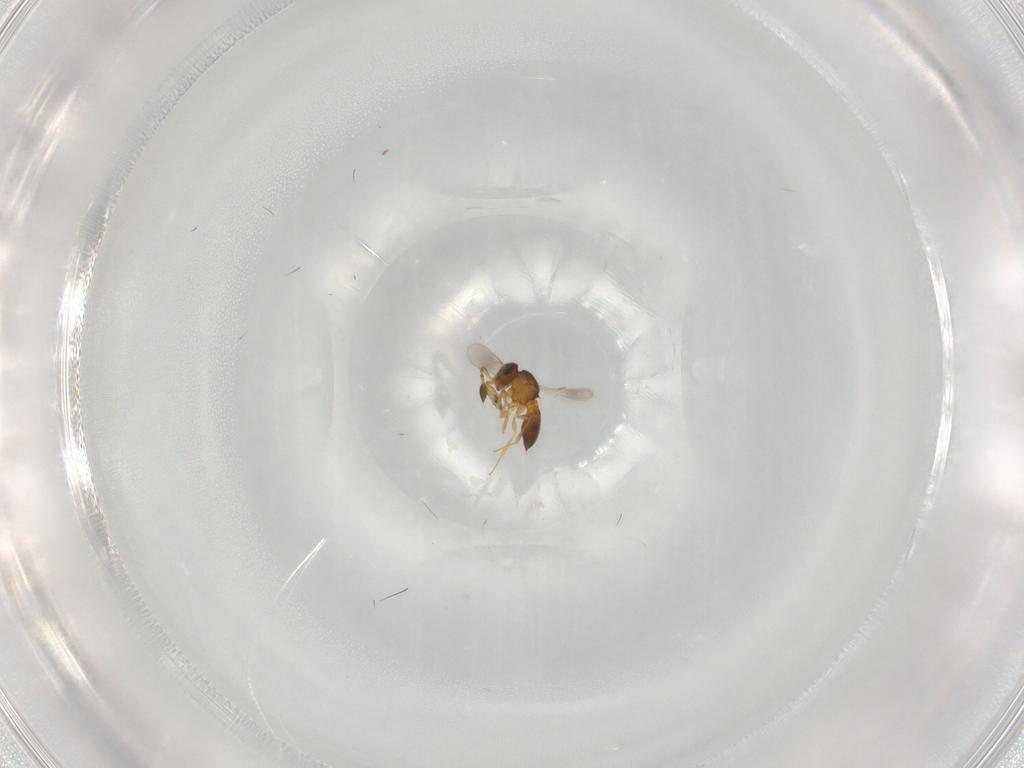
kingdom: Animalia
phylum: Arthropoda
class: Insecta
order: Hymenoptera
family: Scelionidae
